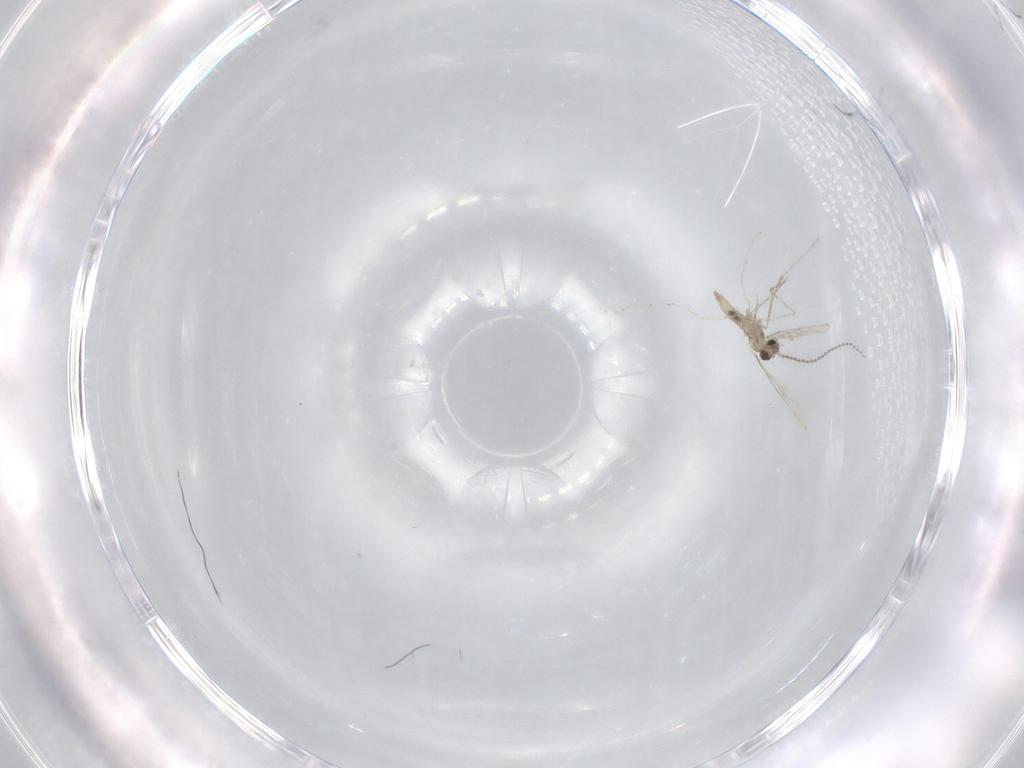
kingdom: Animalia
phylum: Arthropoda
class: Insecta
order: Diptera
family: Cecidomyiidae
